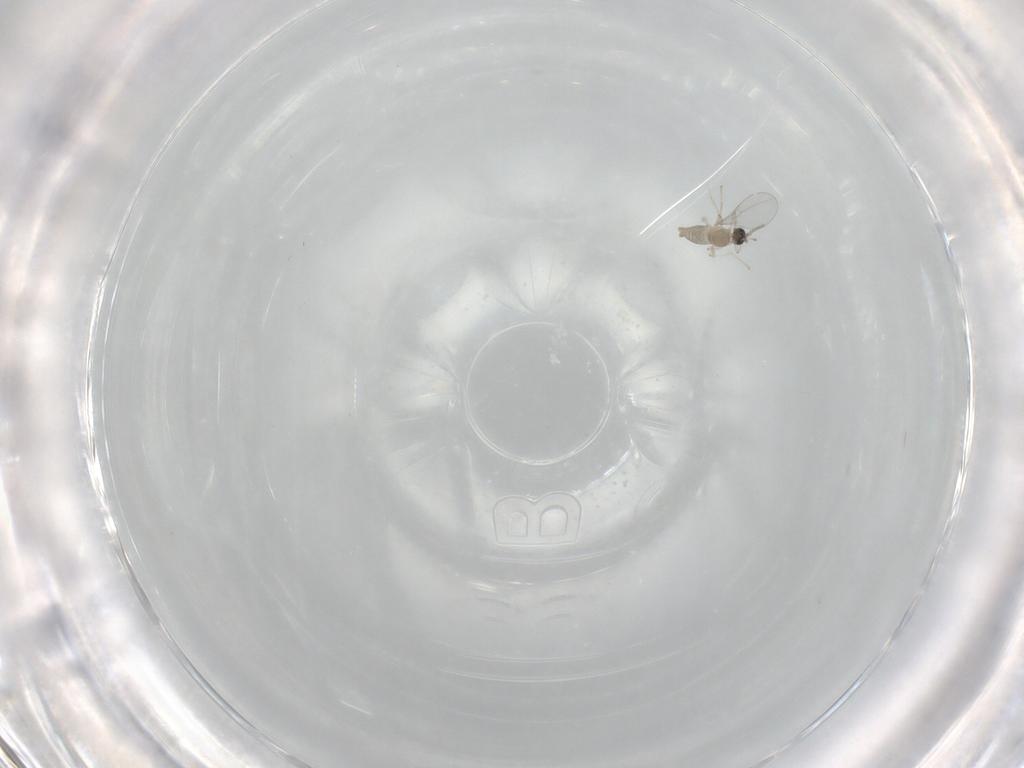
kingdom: Animalia
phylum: Arthropoda
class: Insecta
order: Diptera
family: Cecidomyiidae
